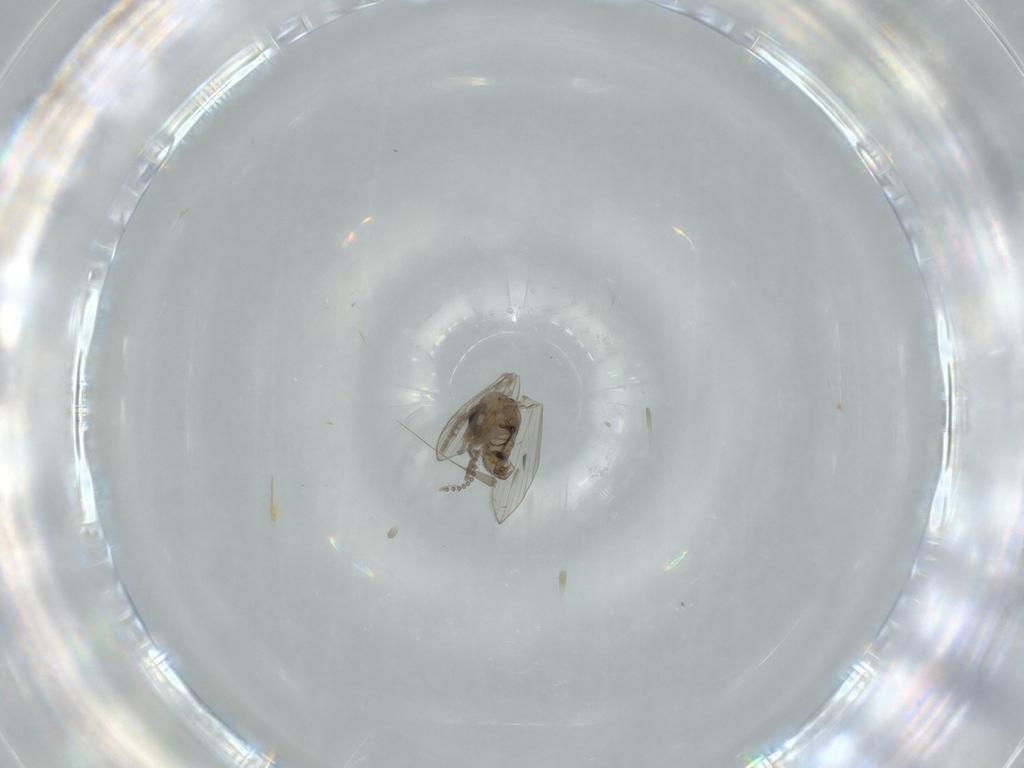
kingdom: Animalia
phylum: Arthropoda
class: Insecta
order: Diptera
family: Psychodidae
